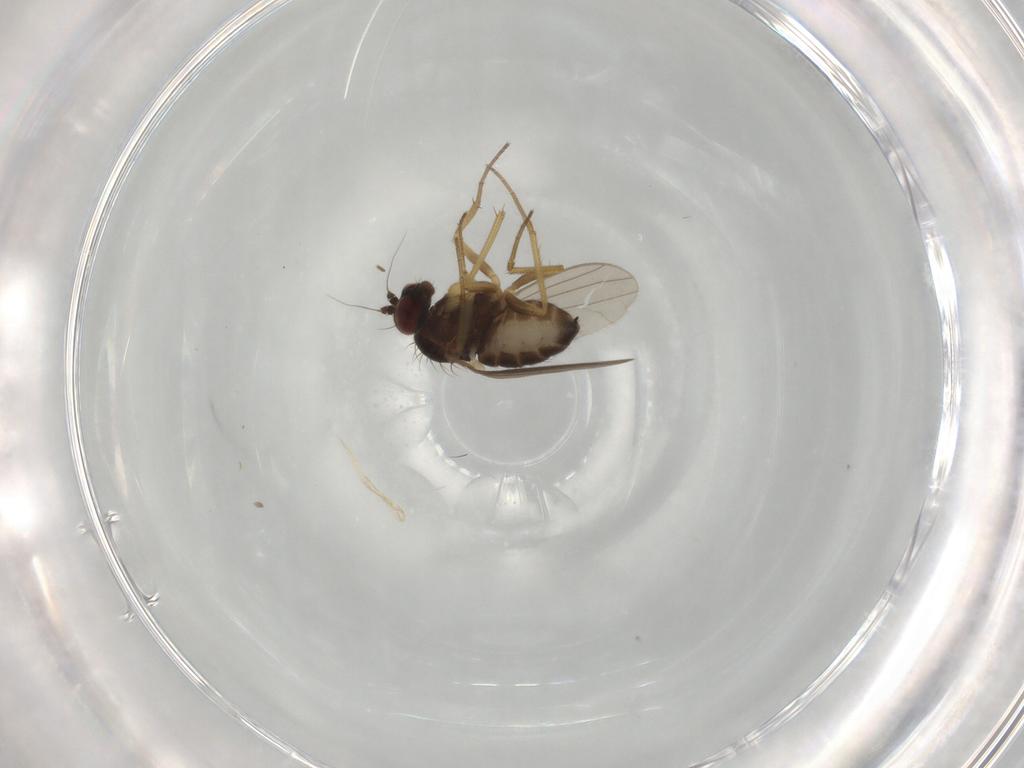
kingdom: Animalia
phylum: Arthropoda
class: Insecta
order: Diptera
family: Dolichopodidae
